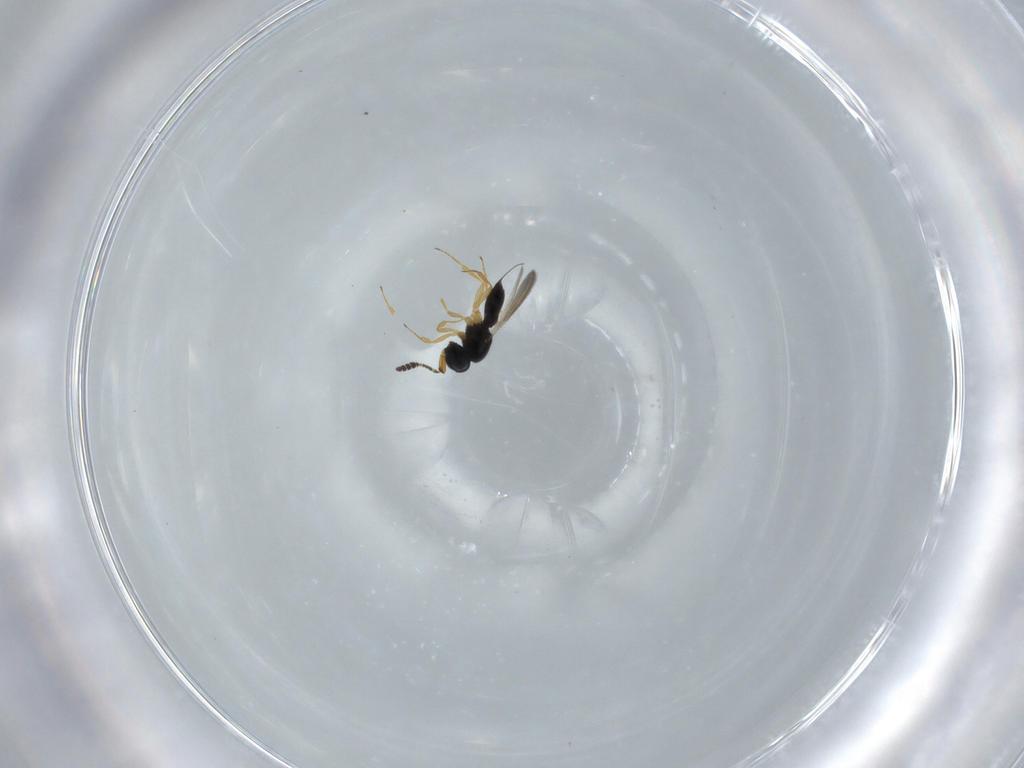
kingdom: Animalia
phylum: Arthropoda
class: Insecta
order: Hymenoptera
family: Scelionidae
